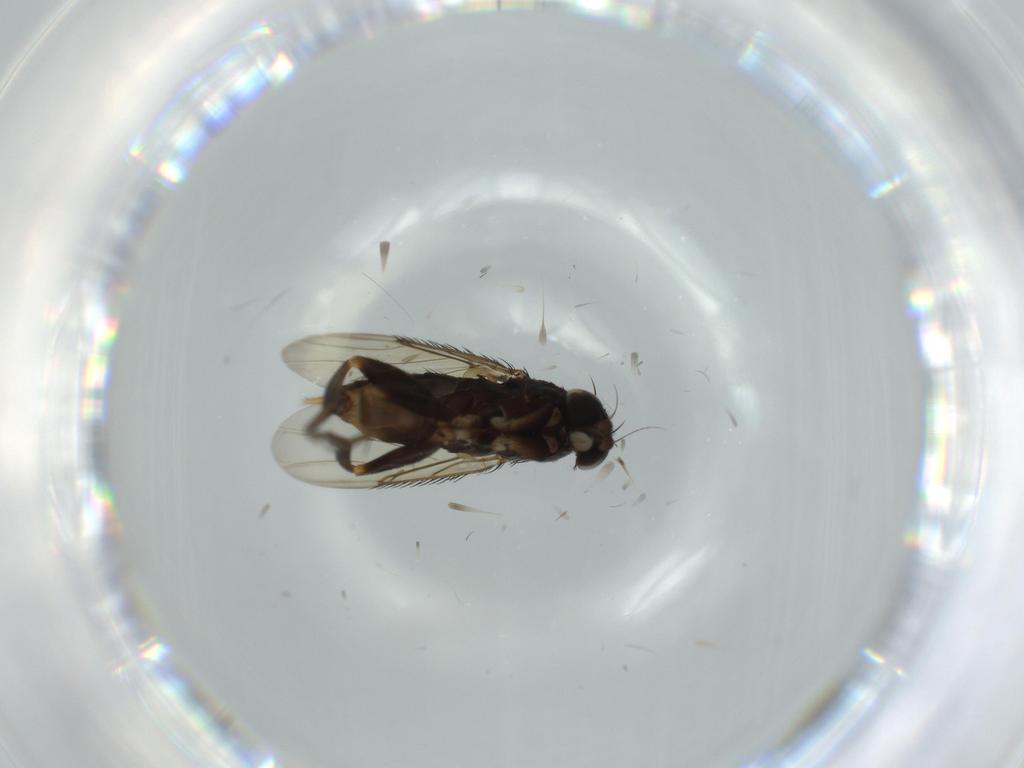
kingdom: Animalia
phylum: Arthropoda
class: Insecta
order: Diptera
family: Phoridae
